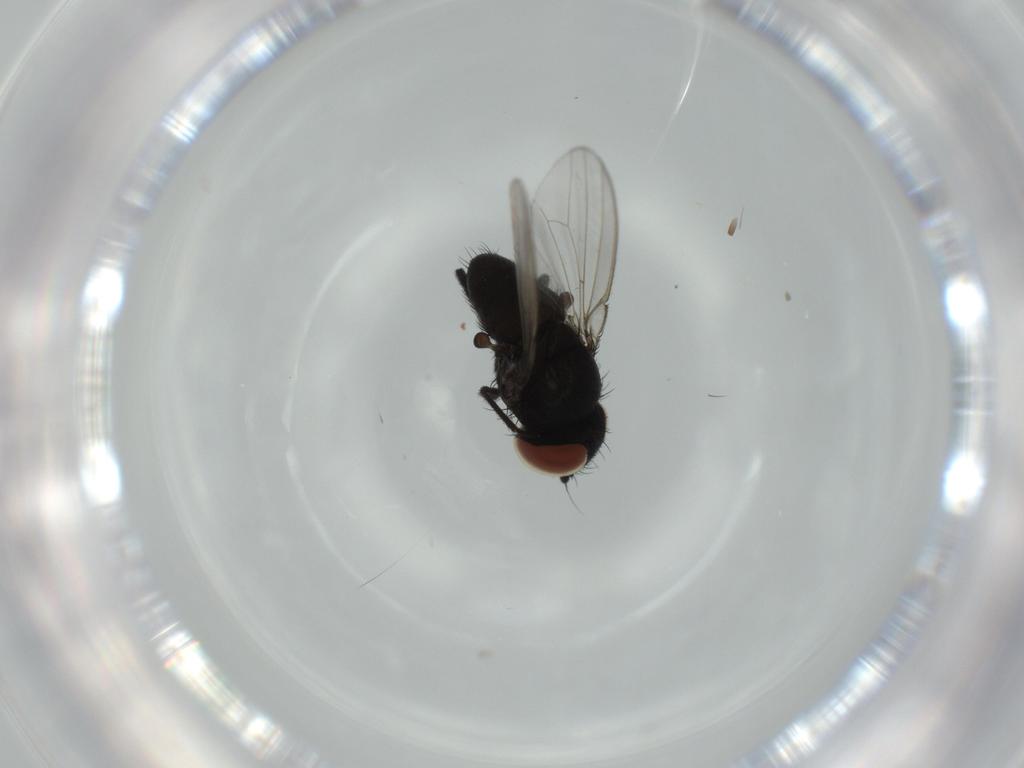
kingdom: Animalia
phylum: Arthropoda
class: Insecta
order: Diptera
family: Milichiidae
